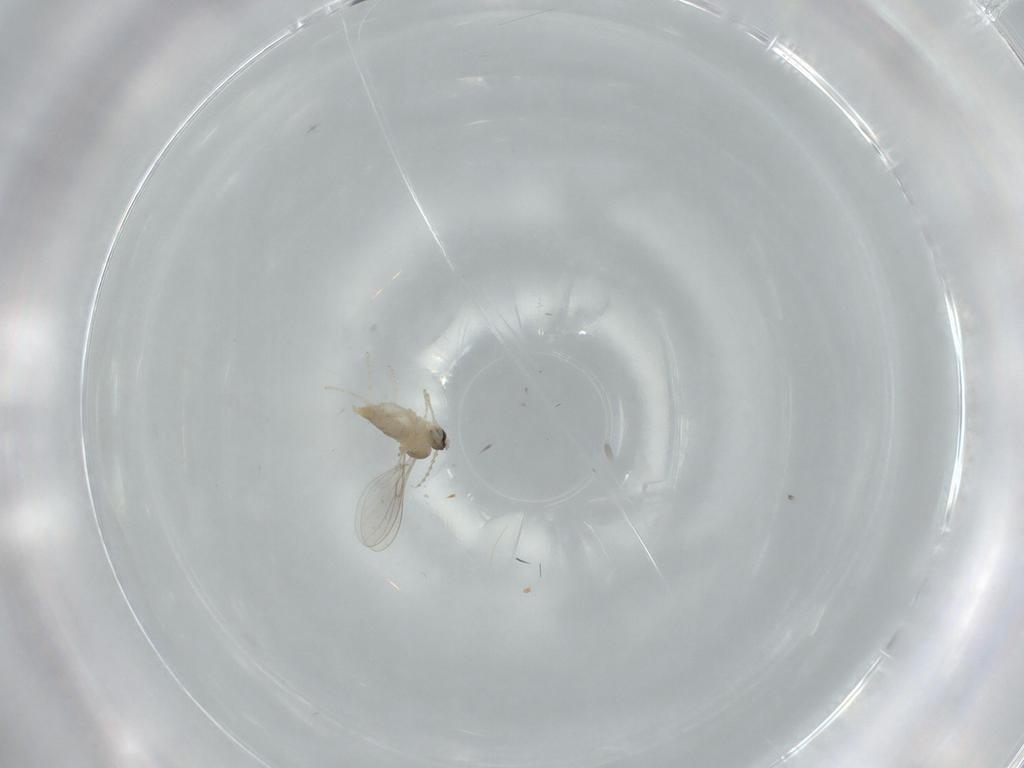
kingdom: Animalia
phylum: Arthropoda
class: Insecta
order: Diptera
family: Cecidomyiidae
